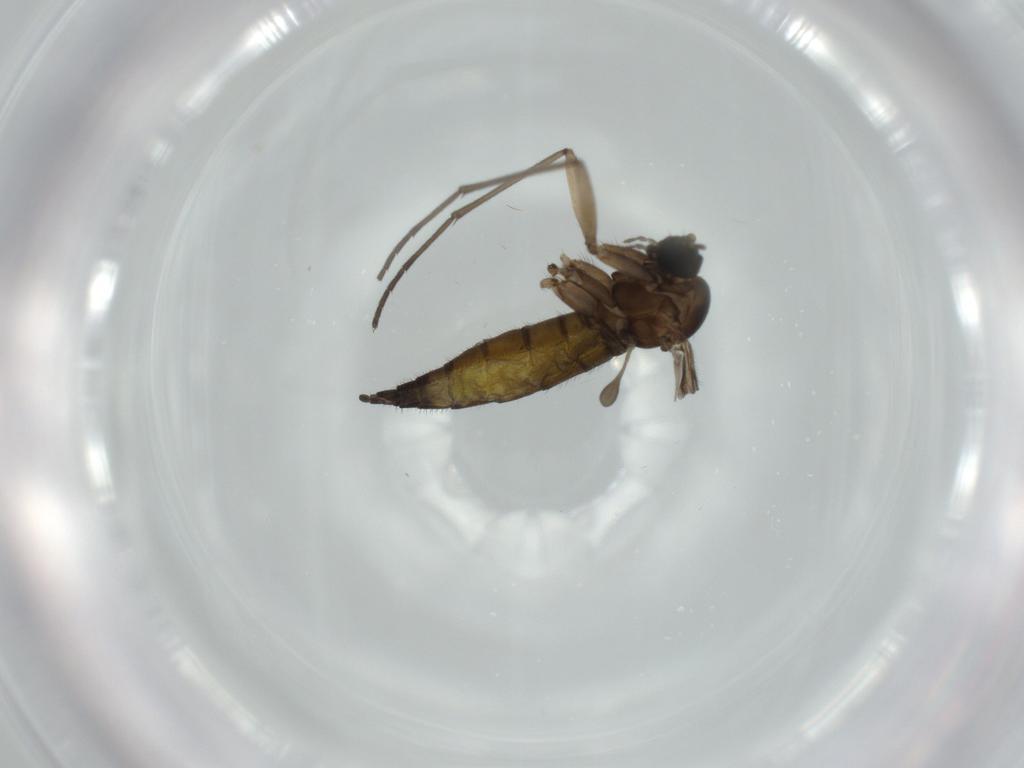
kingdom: Animalia
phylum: Arthropoda
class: Insecta
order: Diptera
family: Sciaridae
